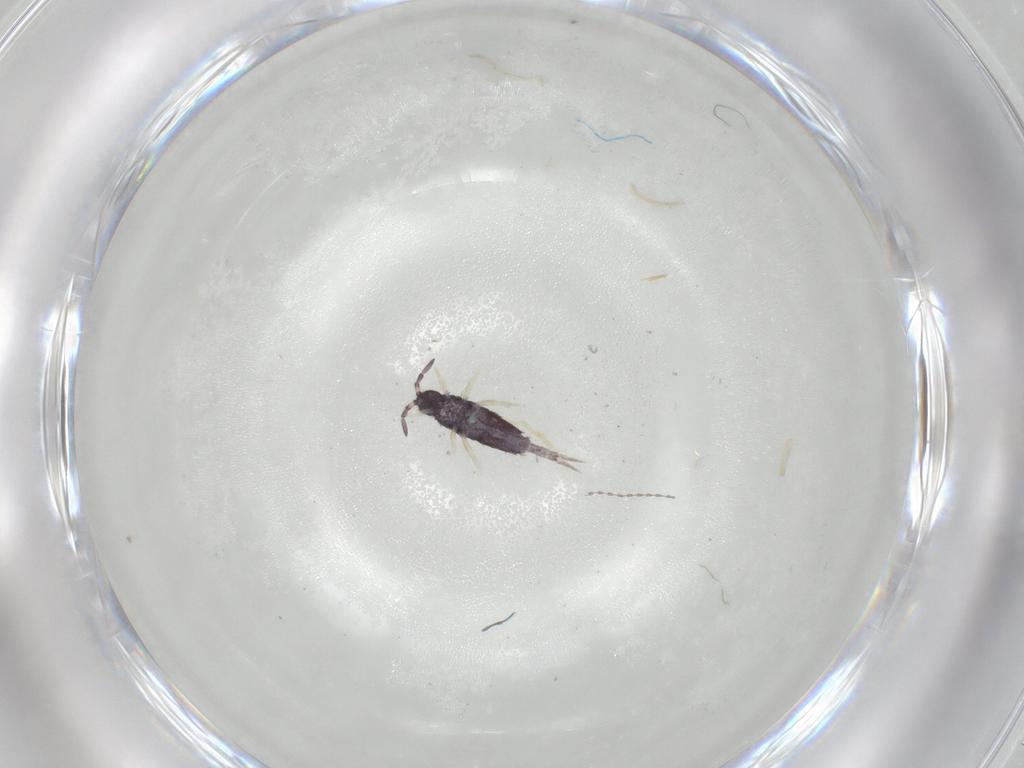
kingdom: Animalia
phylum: Arthropoda
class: Collembola
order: Entomobryomorpha
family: Entomobryidae
